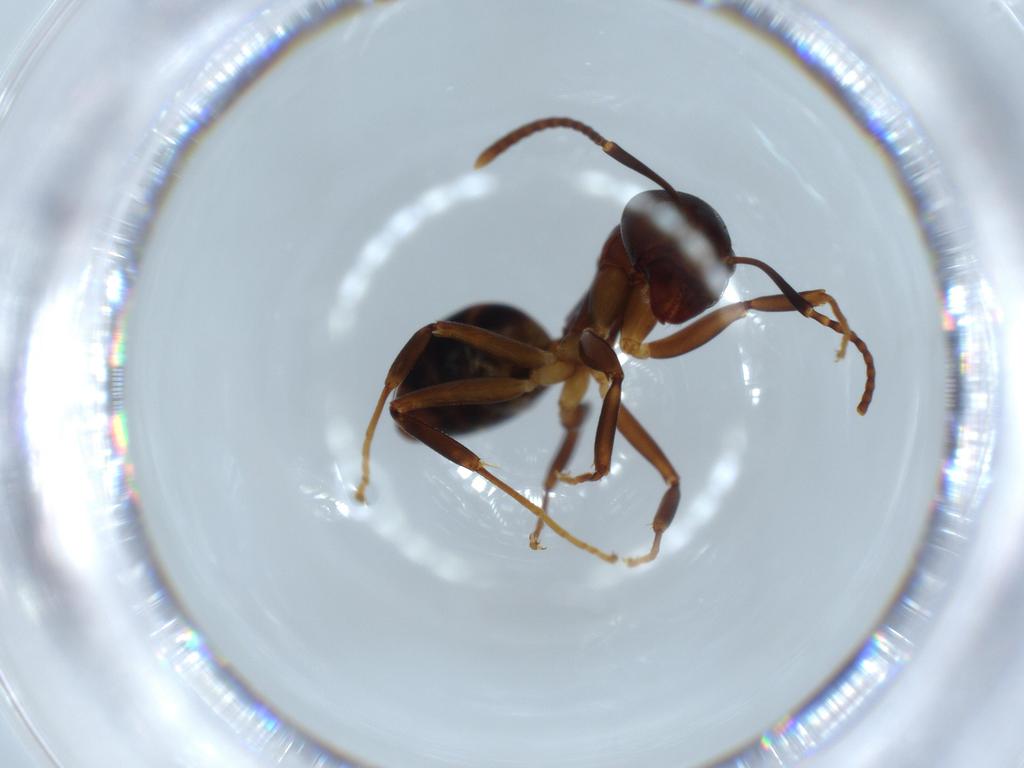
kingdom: Animalia
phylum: Arthropoda
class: Insecta
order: Hymenoptera
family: Formicidae
